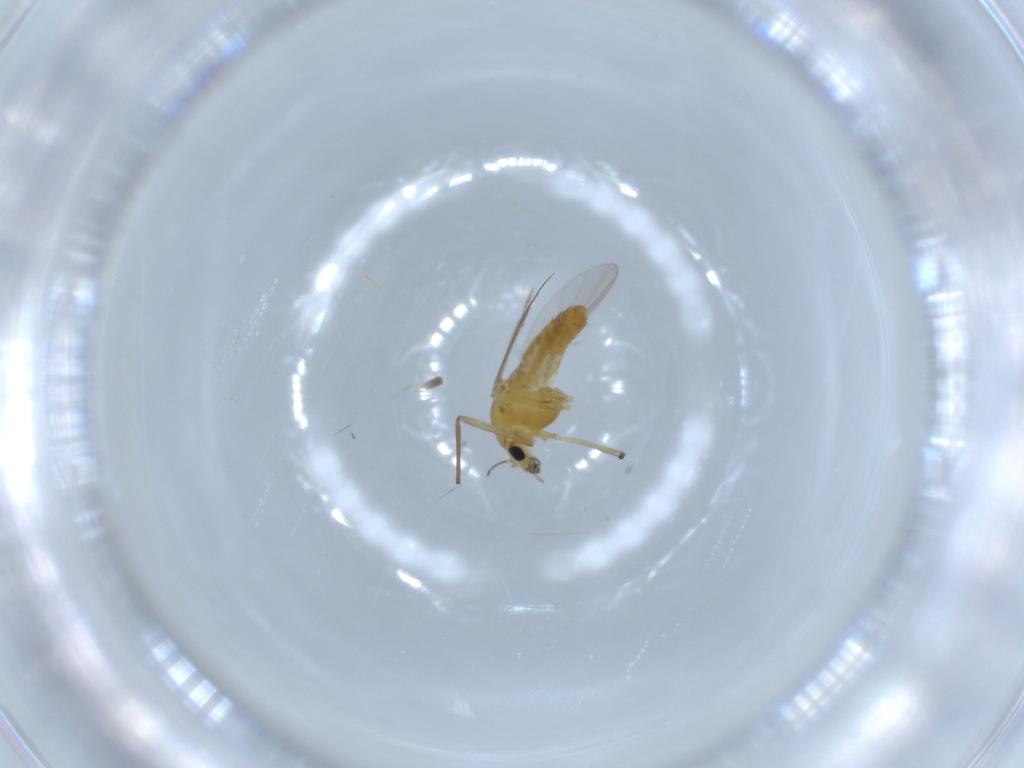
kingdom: Animalia
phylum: Arthropoda
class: Insecta
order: Diptera
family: Chironomidae
